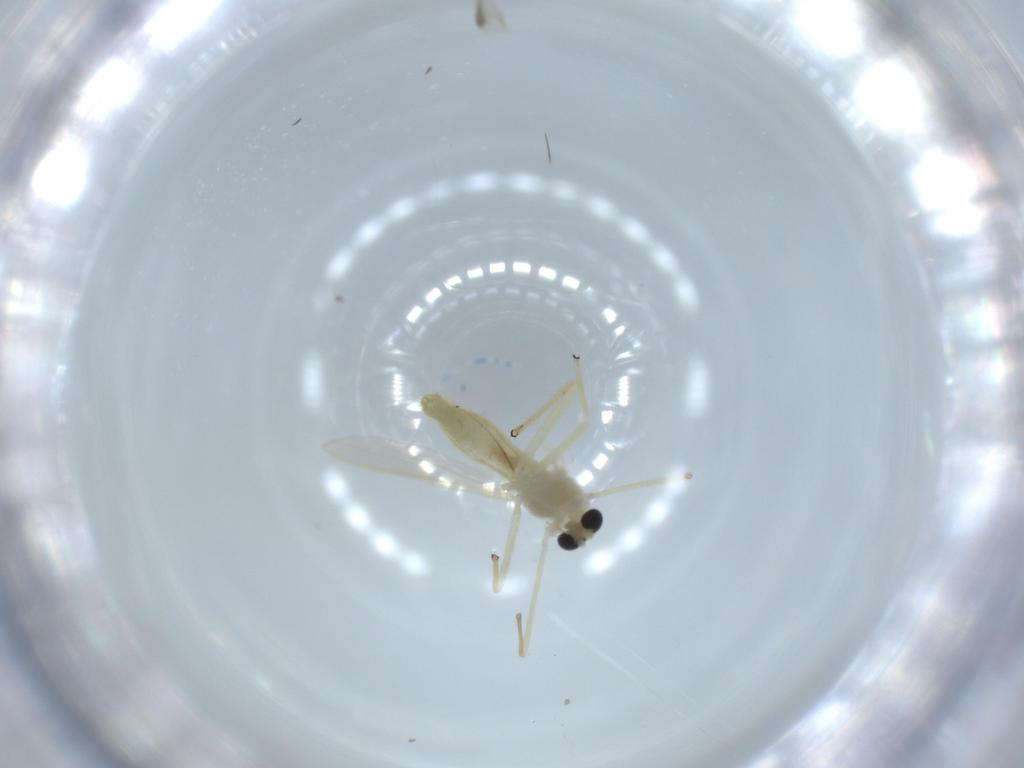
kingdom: Animalia
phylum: Arthropoda
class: Insecta
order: Diptera
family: Chironomidae
